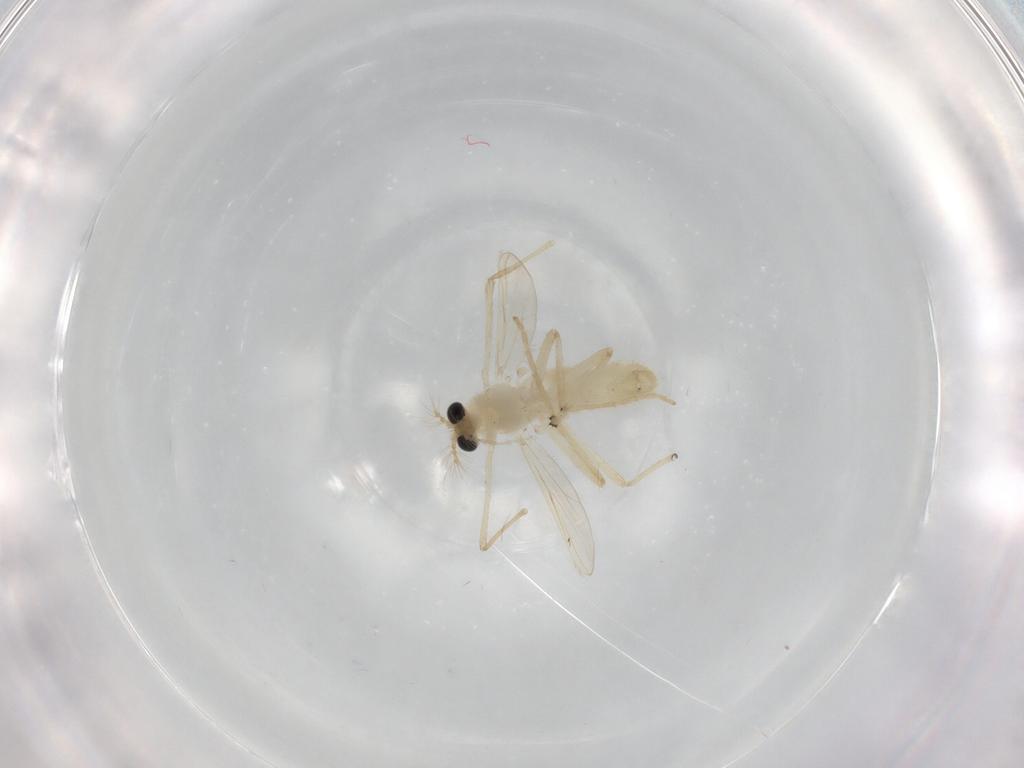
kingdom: Animalia
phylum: Arthropoda
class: Insecta
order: Diptera
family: Chironomidae
